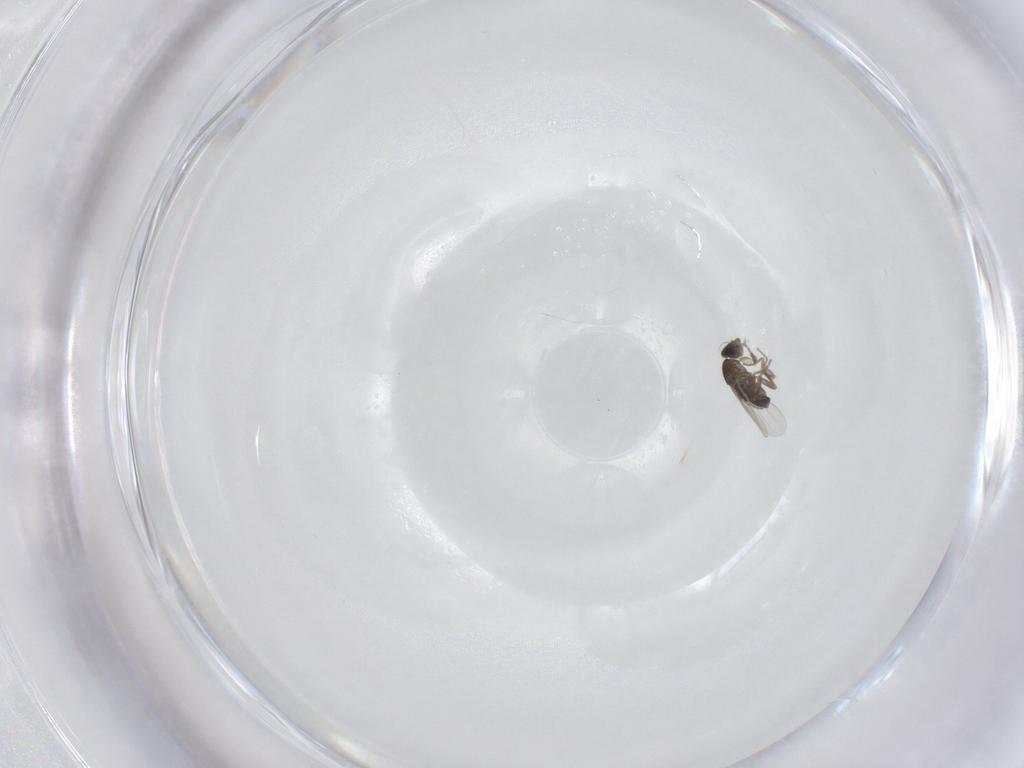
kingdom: Animalia
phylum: Arthropoda
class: Insecta
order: Diptera
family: Phoridae
